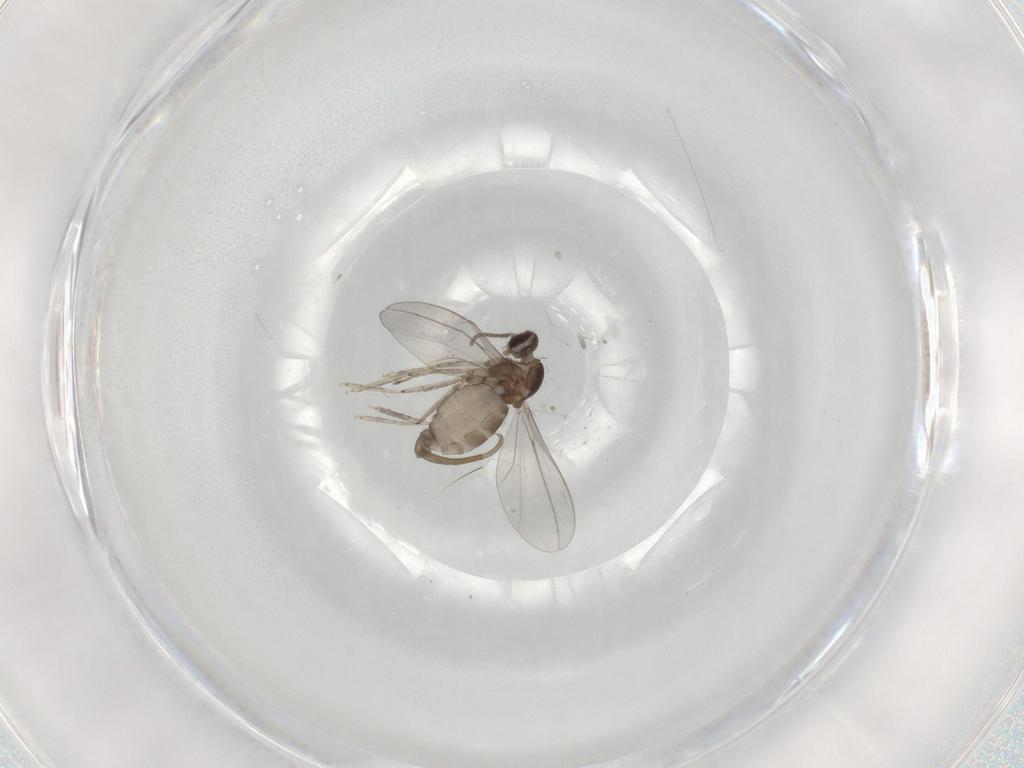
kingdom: Animalia
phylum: Arthropoda
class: Insecta
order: Diptera
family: Cecidomyiidae
